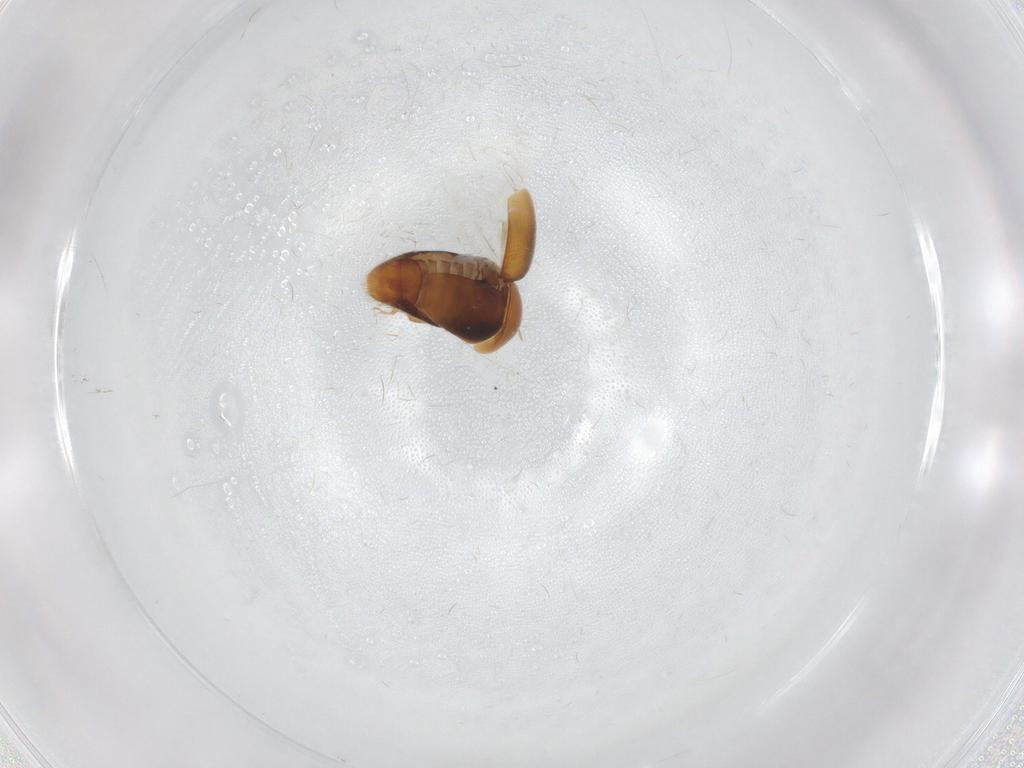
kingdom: Animalia
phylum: Arthropoda
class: Insecta
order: Coleoptera
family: Corylophidae
